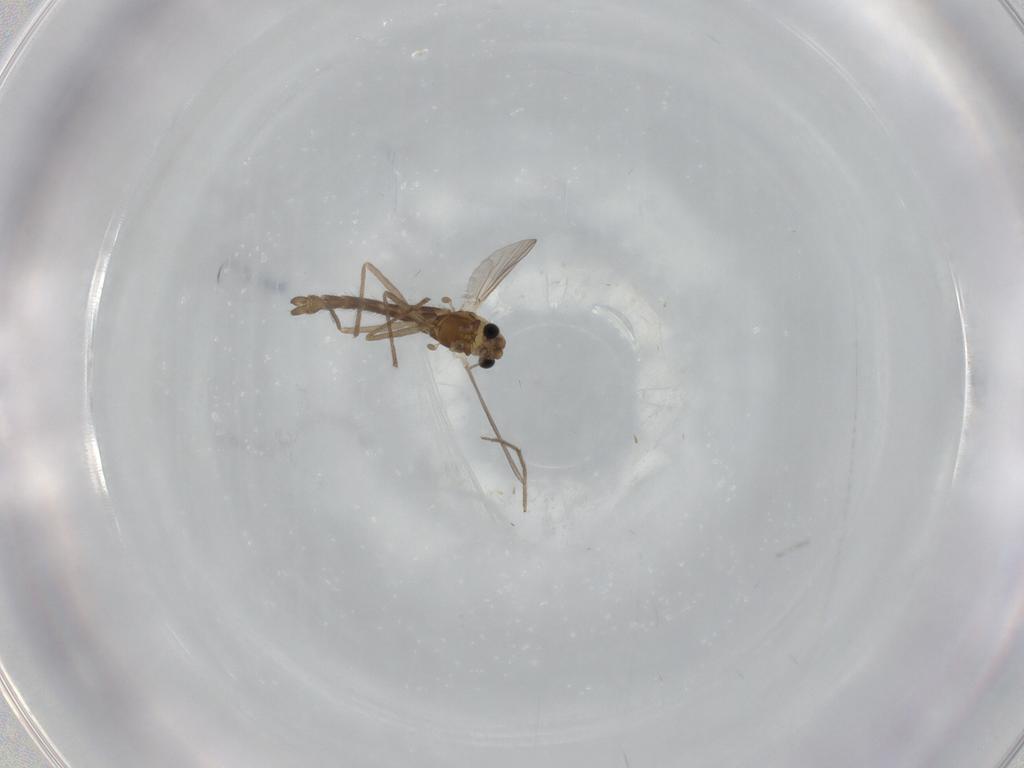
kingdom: Animalia
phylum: Arthropoda
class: Insecta
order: Diptera
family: Chironomidae
